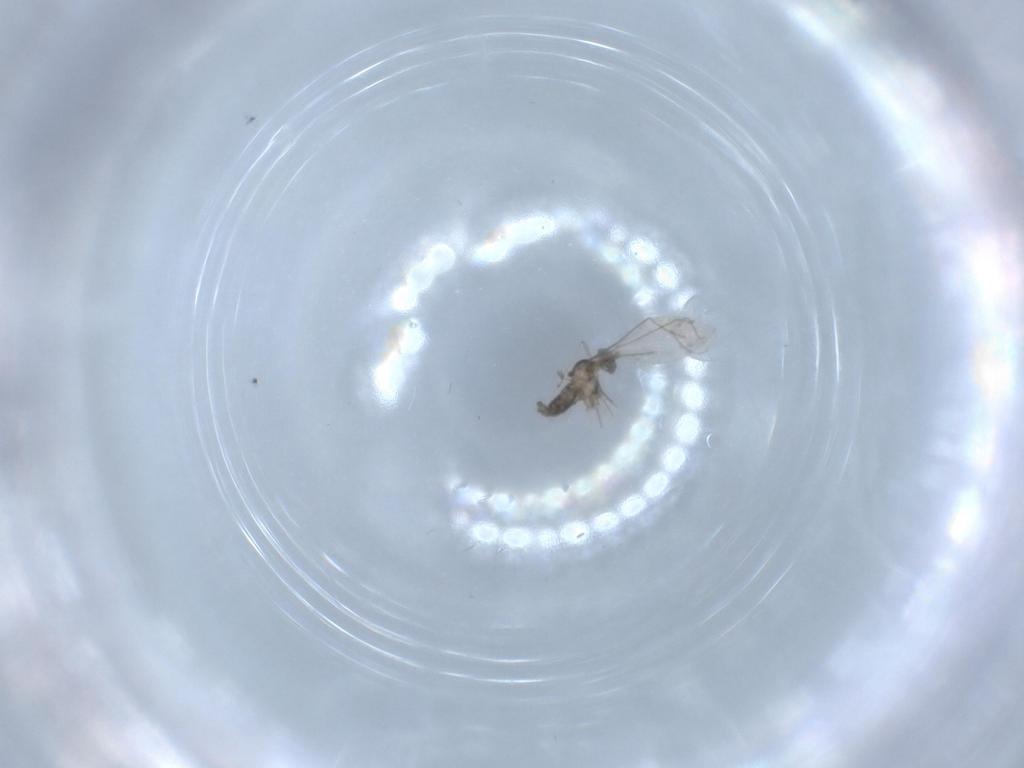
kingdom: Animalia
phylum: Arthropoda
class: Insecta
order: Diptera
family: Cecidomyiidae
